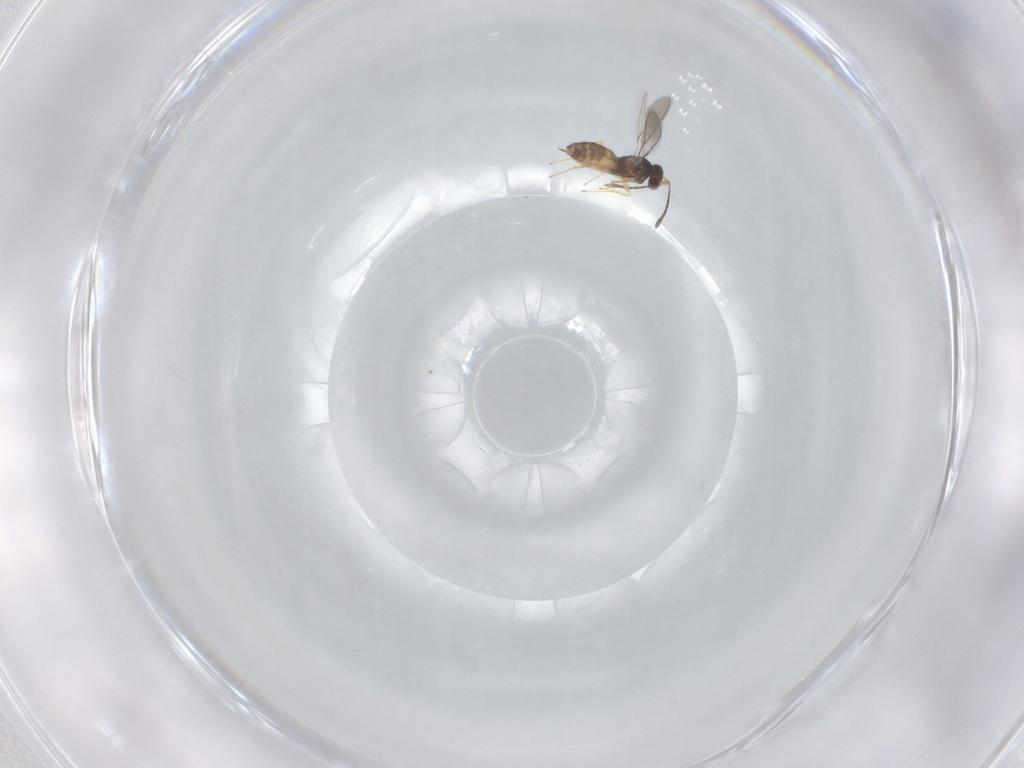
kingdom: Animalia
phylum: Arthropoda
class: Insecta
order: Hymenoptera
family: Mymaridae
